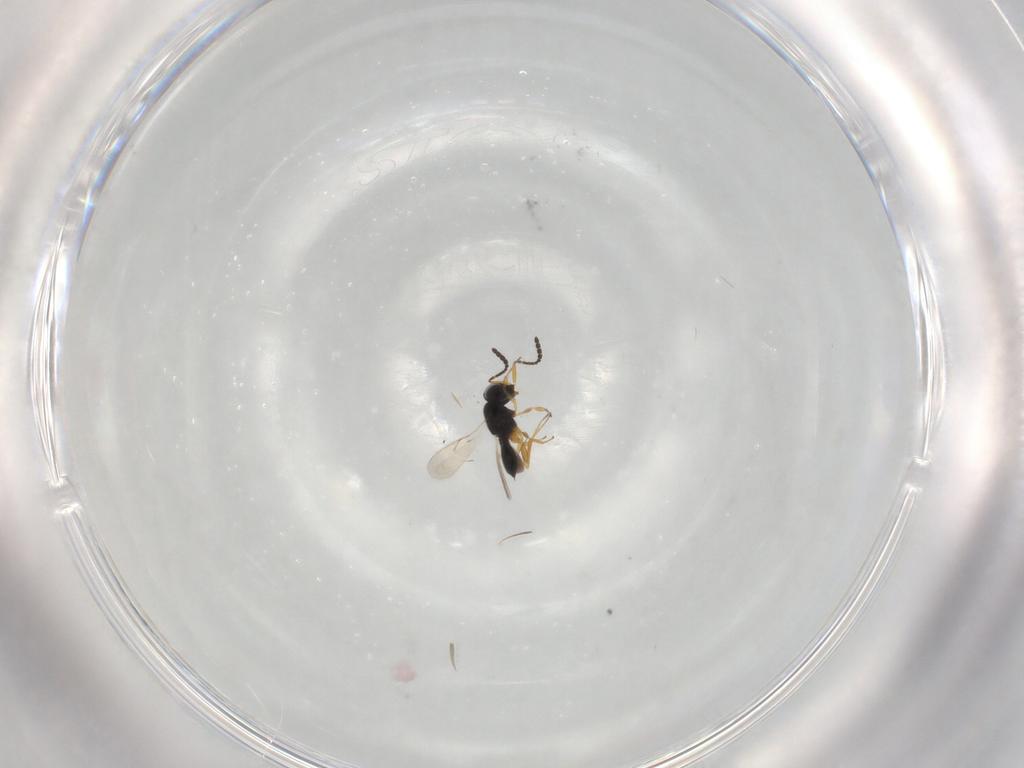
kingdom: Animalia
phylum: Arthropoda
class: Insecta
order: Hymenoptera
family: Scelionidae
